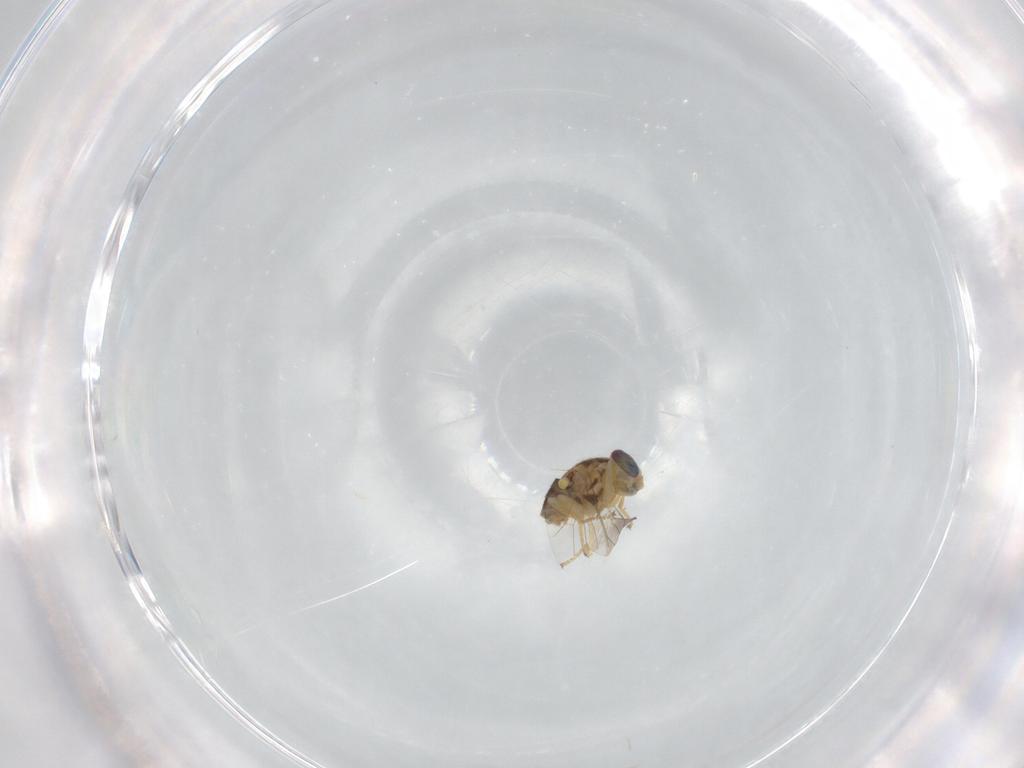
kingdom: Animalia
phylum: Arthropoda
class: Insecta
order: Diptera
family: Chyromyidae
